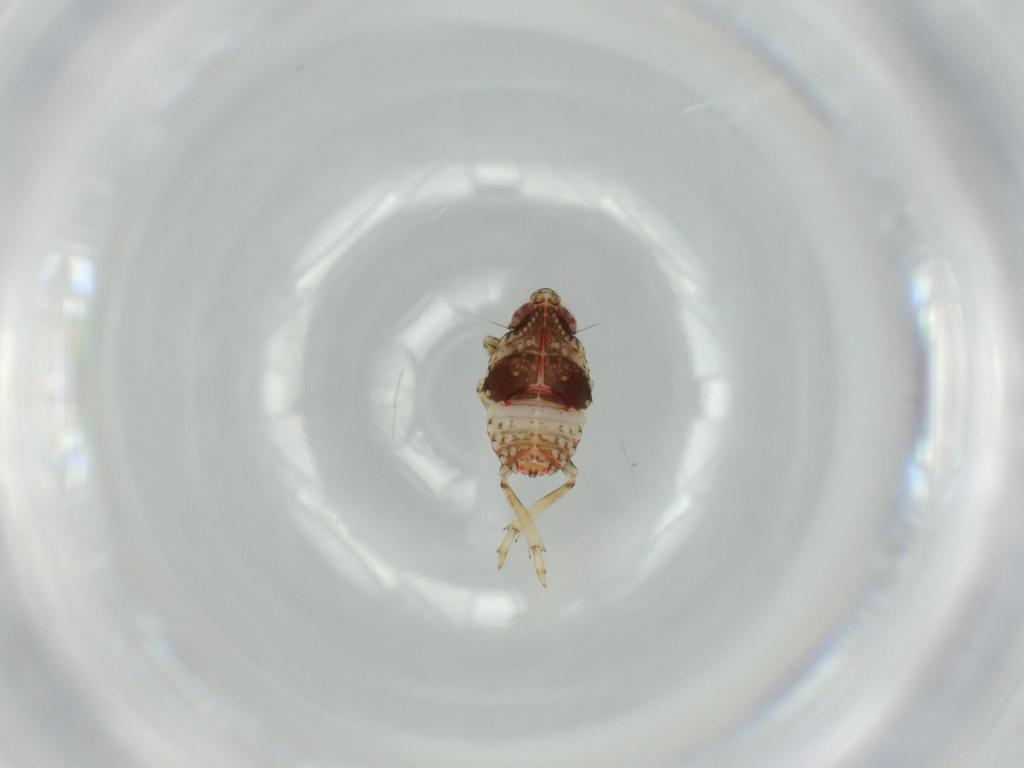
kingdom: Animalia
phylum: Arthropoda
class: Insecta
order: Hemiptera
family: Issidae
